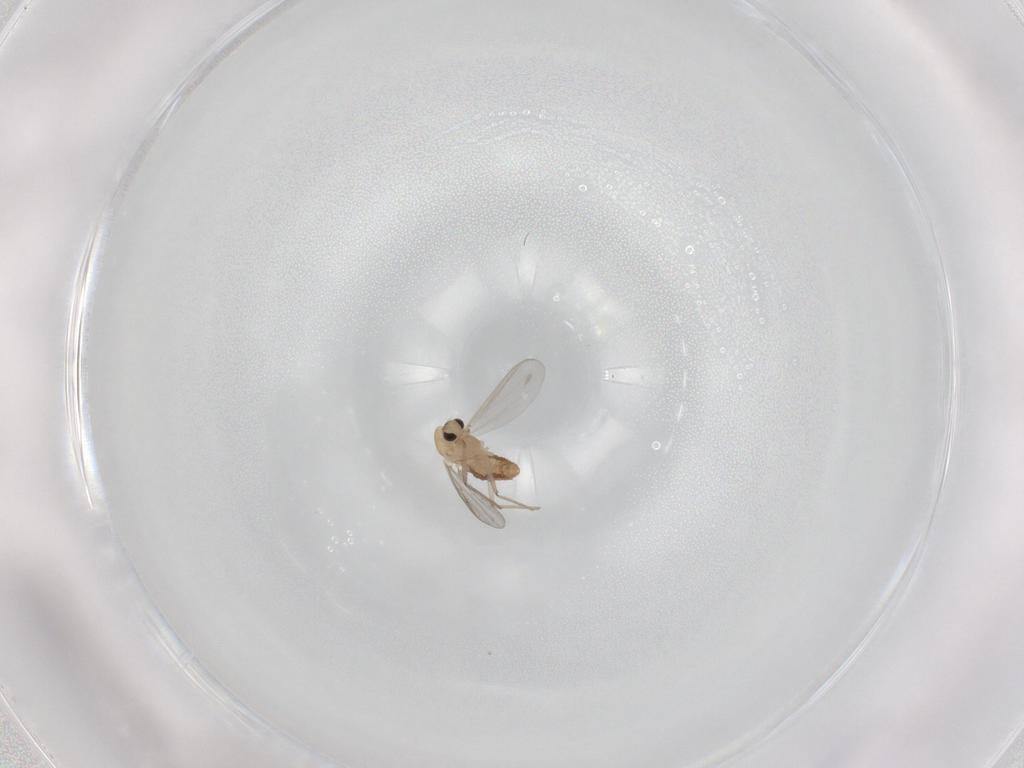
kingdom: Animalia
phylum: Arthropoda
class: Insecta
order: Diptera
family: Chironomidae
